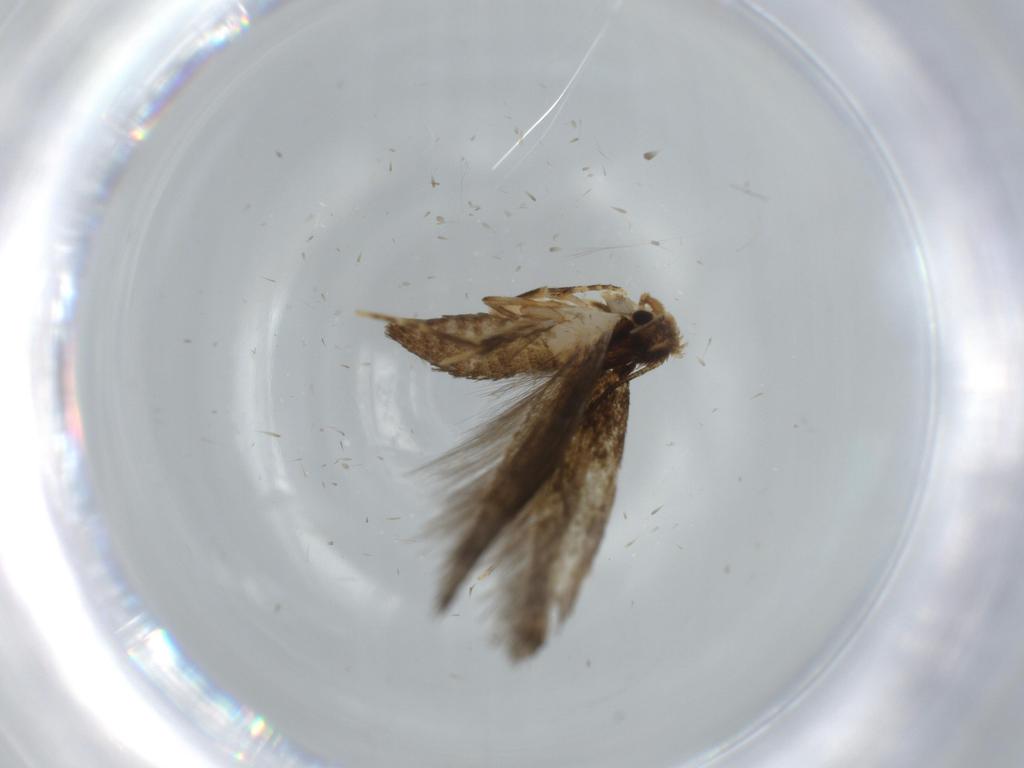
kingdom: Animalia
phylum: Arthropoda
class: Insecta
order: Lepidoptera
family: Tineidae
